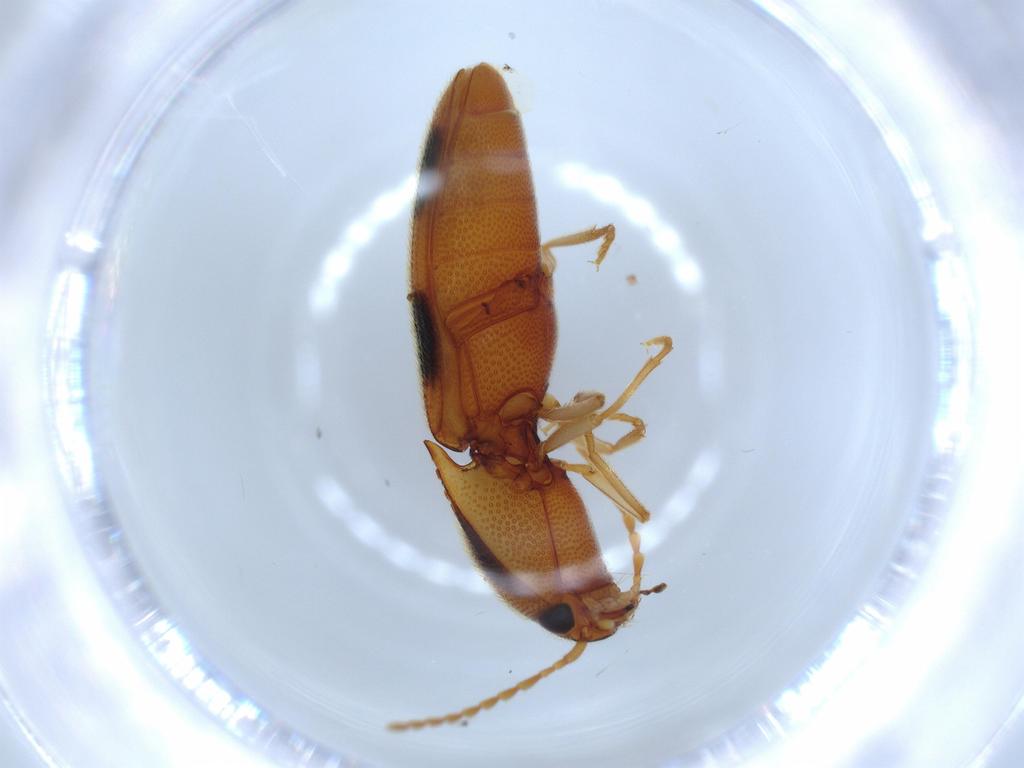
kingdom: Animalia
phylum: Arthropoda
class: Insecta
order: Coleoptera
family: Elateridae
